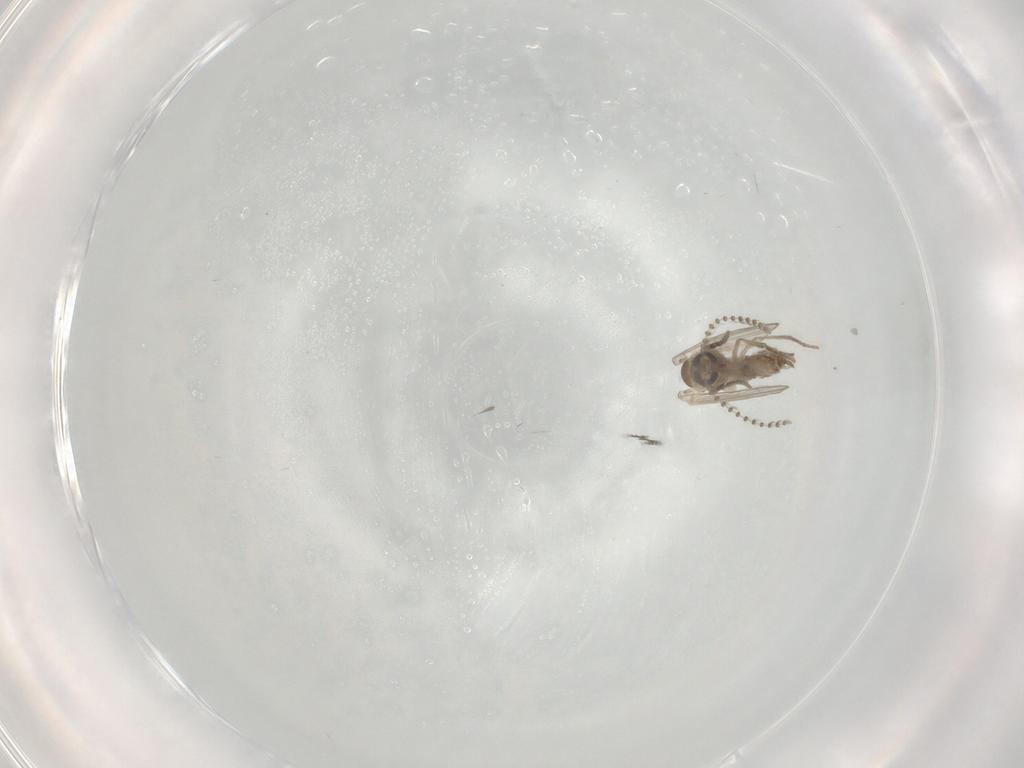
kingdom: Animalia
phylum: Arthropoda
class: Insecta
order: Diptera
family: Psychodidae
